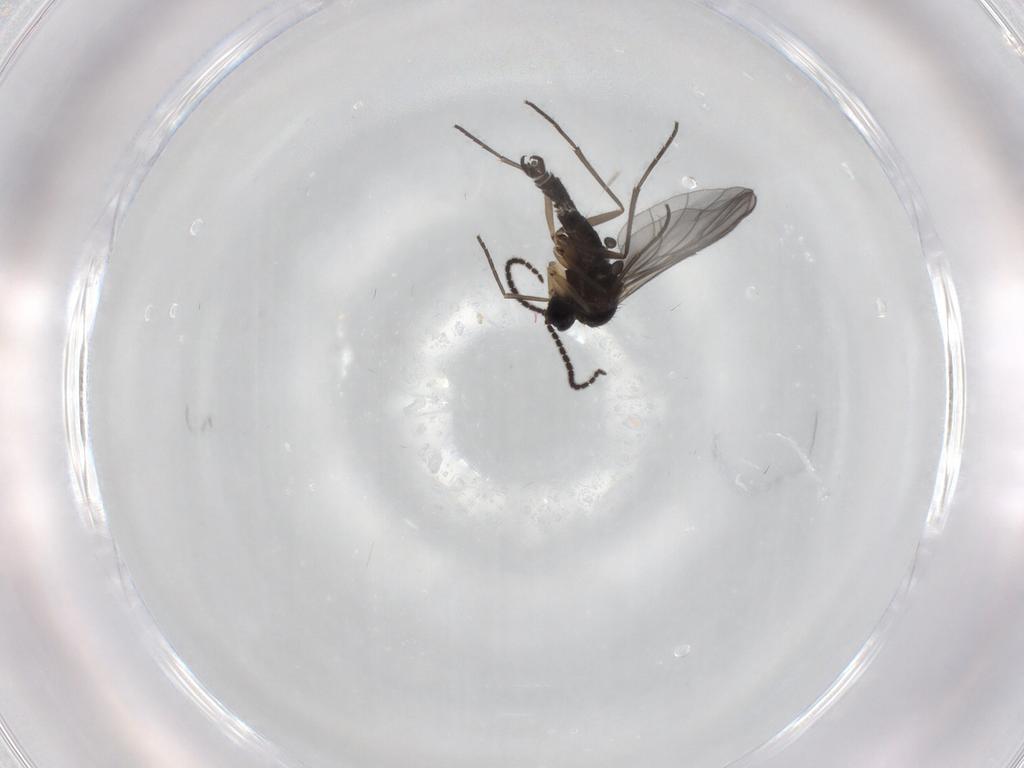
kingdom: Animalia
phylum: Arthropoda
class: Insecta
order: Diptera
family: Sciaridae
